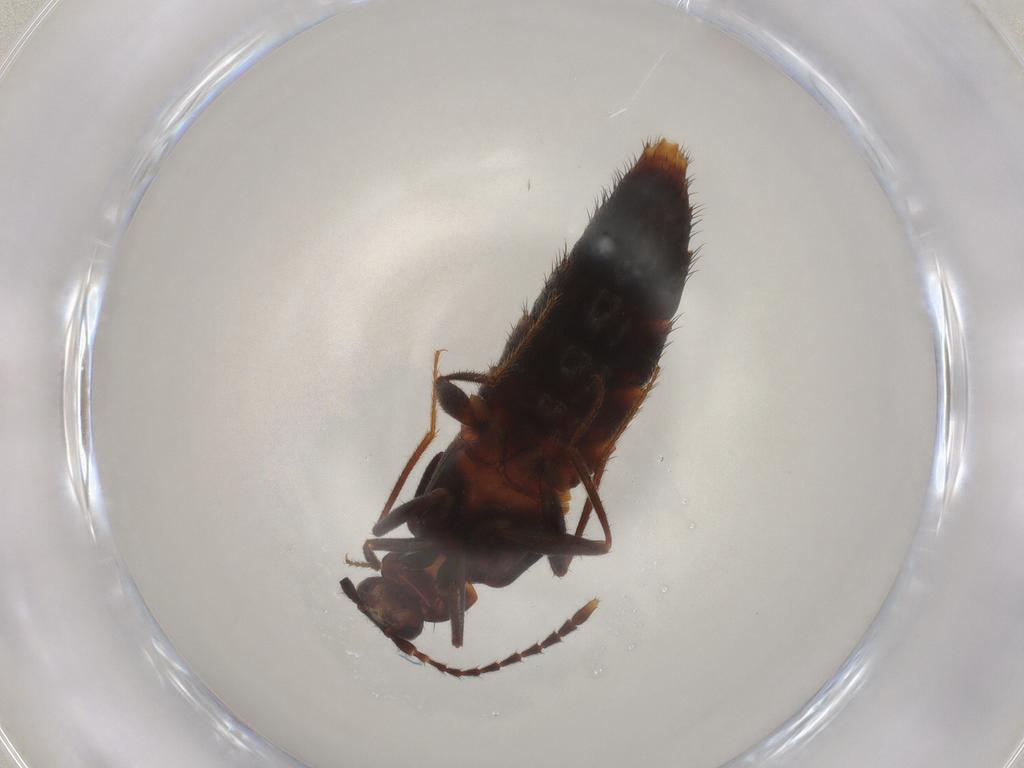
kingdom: Animalia
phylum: Arthropoda
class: Insecta
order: Coleoptera
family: Staphylinidae
